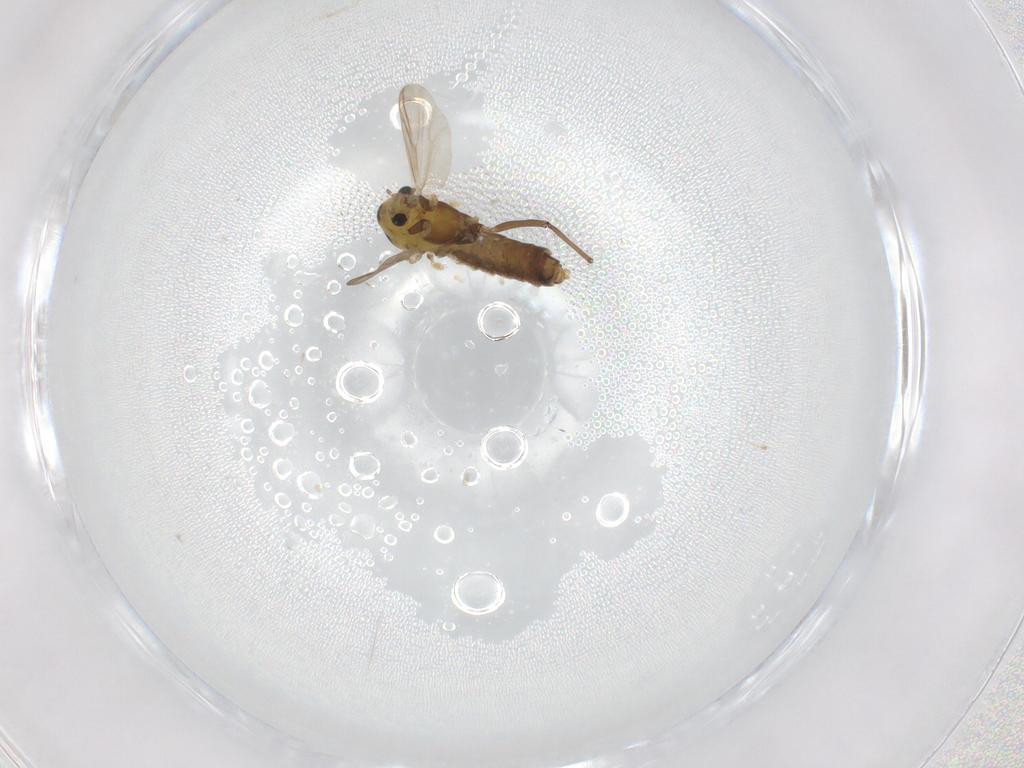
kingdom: Animalia
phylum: Arthropoda
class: Insecta
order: Diptera
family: Chironomidae
